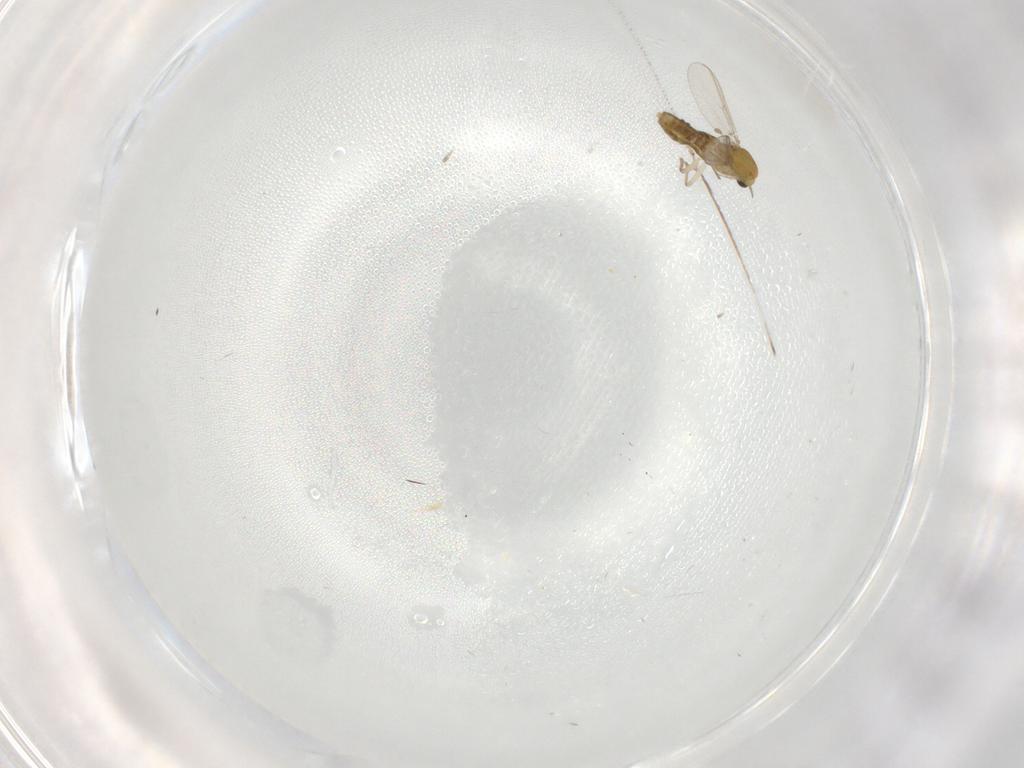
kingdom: Animalia
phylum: Arthropoda
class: Insecta
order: Diptera
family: Chironomidae
